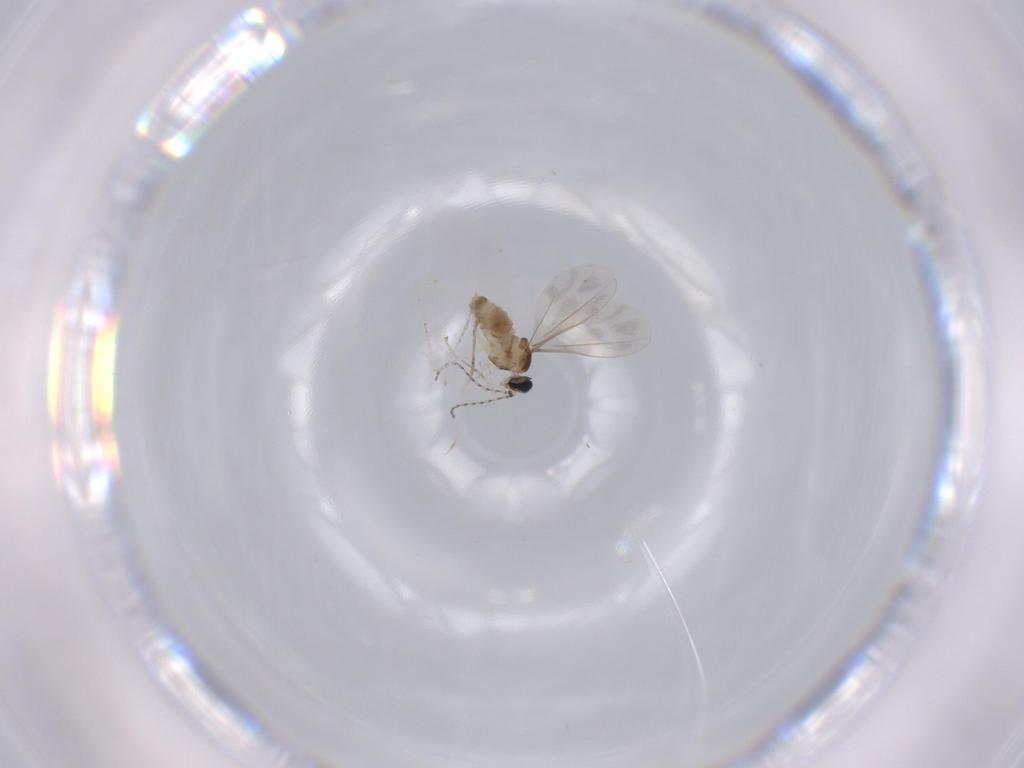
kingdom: Animalia
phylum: Arthropoda
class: Insecta
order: Diptera
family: Sciaridae
